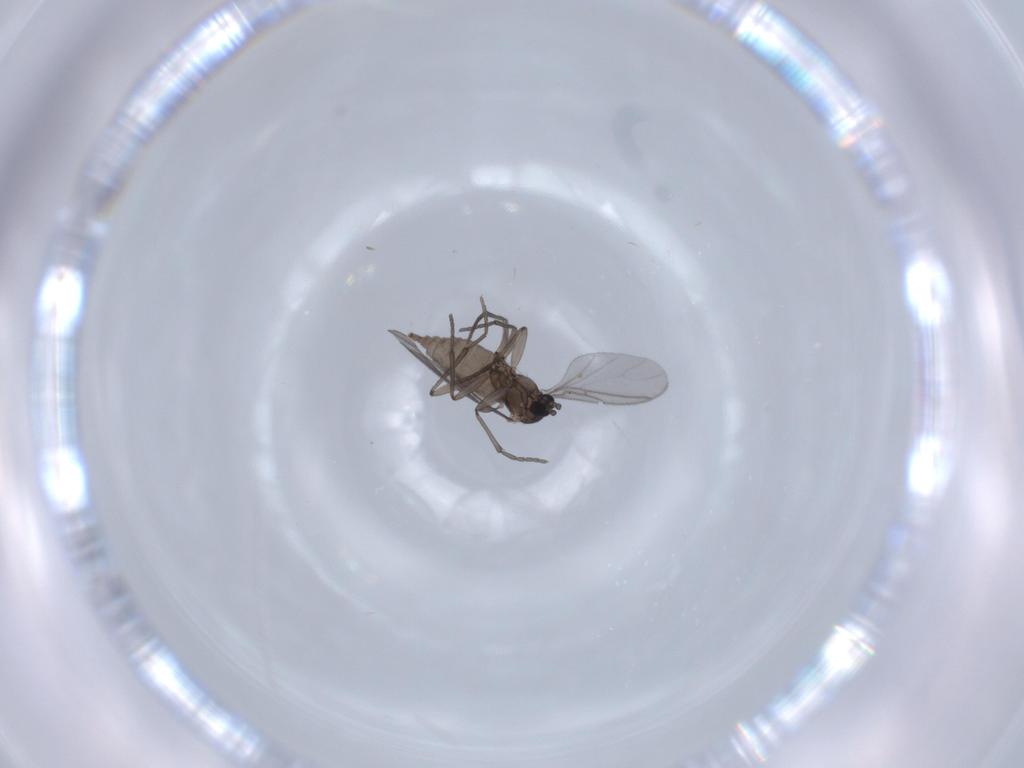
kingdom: Animalia
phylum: Arthropoda
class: Insecta
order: Diptera
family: Sciaridae
